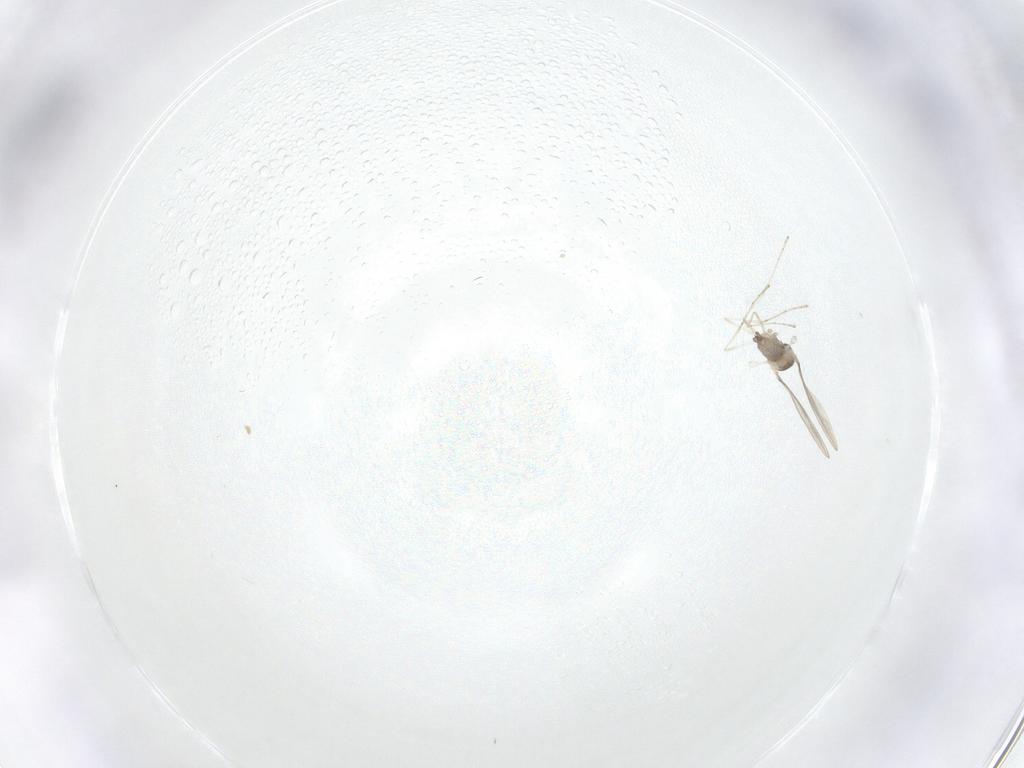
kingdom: Animalia
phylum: Arthropoda
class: Insecta
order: Diptera
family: Cecidomyiidae
